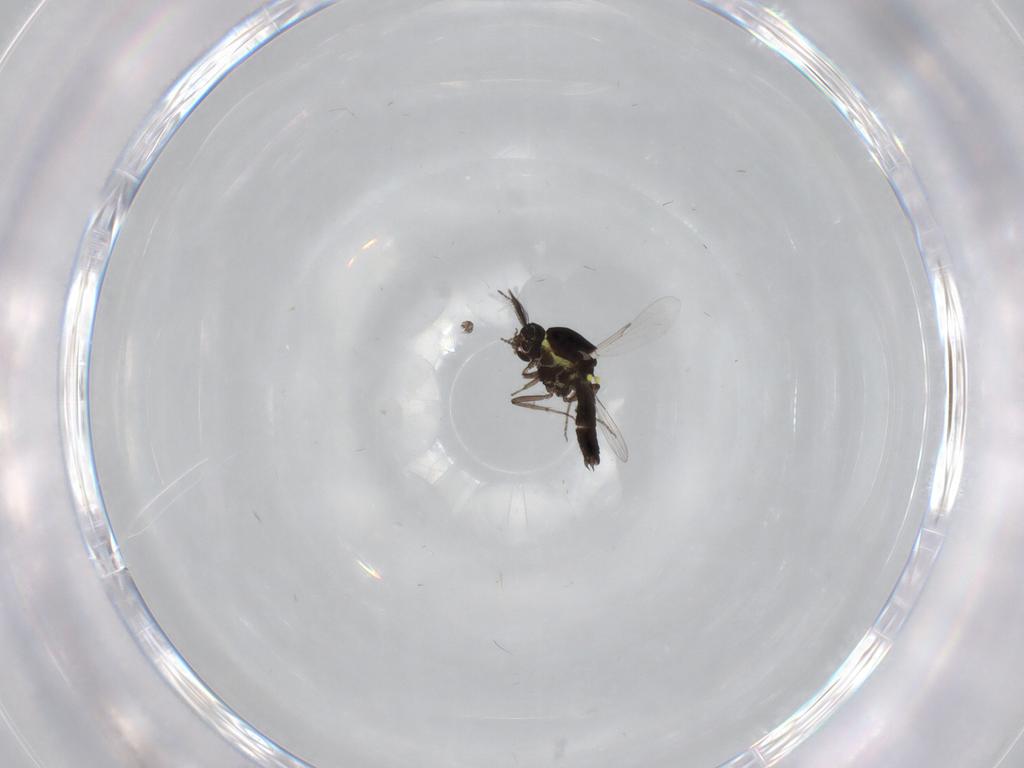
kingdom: Animalia
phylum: Arthropoda
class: Insecta
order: Diptera
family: Ceratopogonidae
